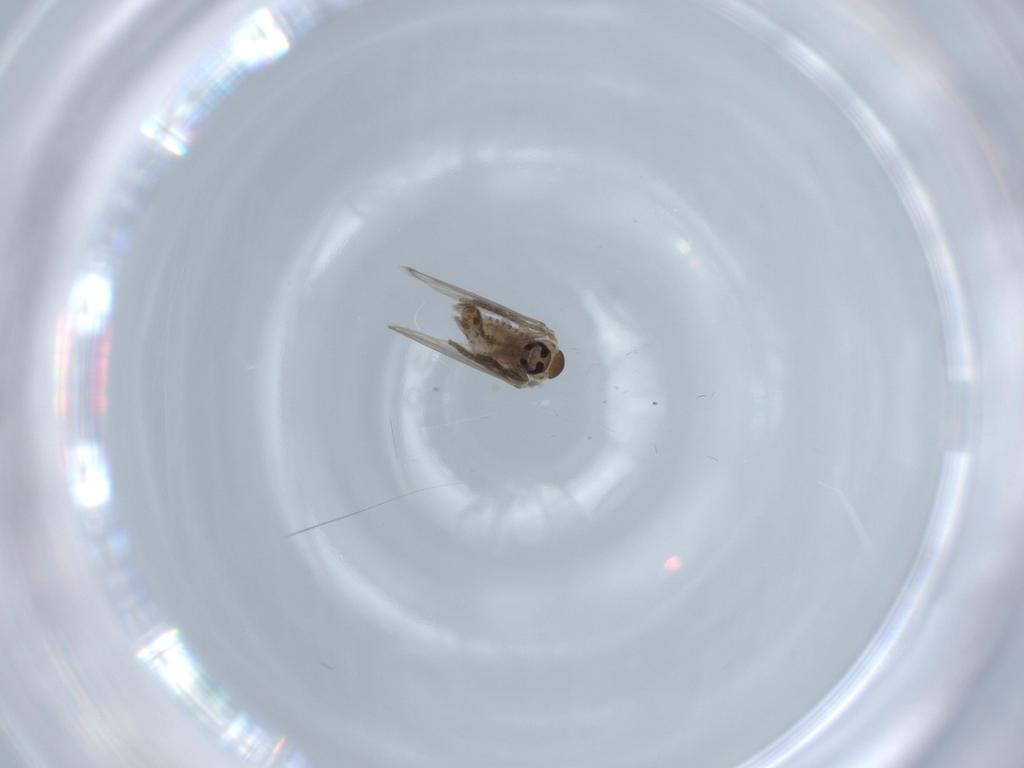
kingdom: Animalia
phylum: Arthropoda
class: Insecta
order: Diptera
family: Psychodidae
